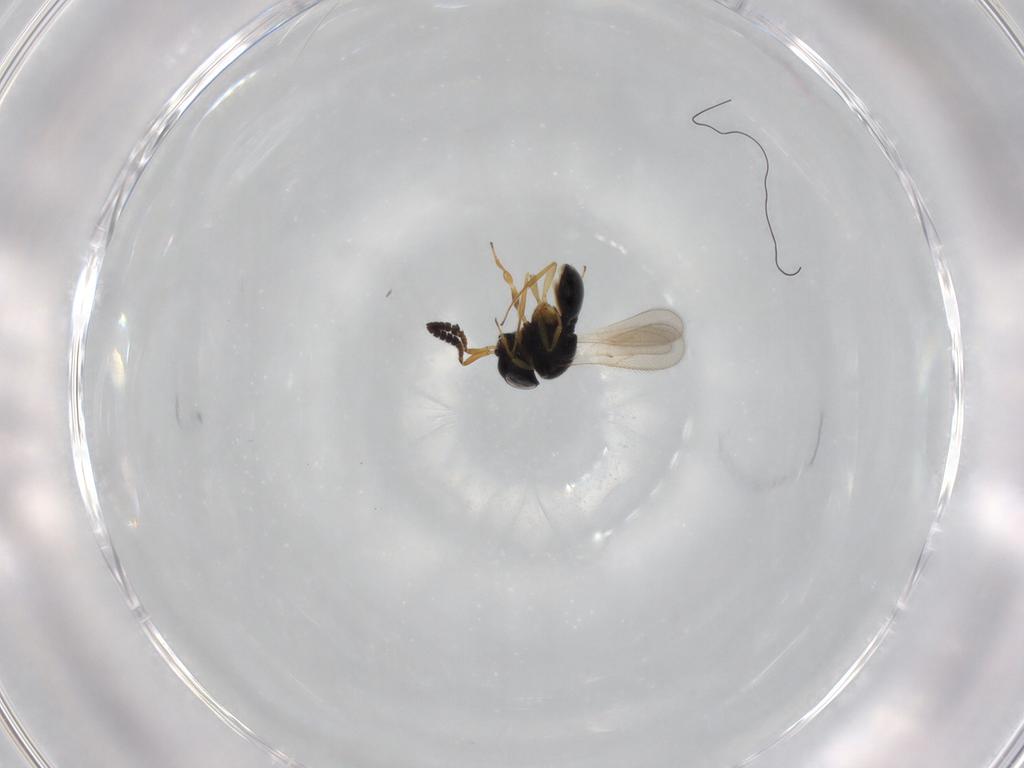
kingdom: Animalia
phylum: Arthropoda
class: Insecta
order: Hymenoptera
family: Scelionidae
